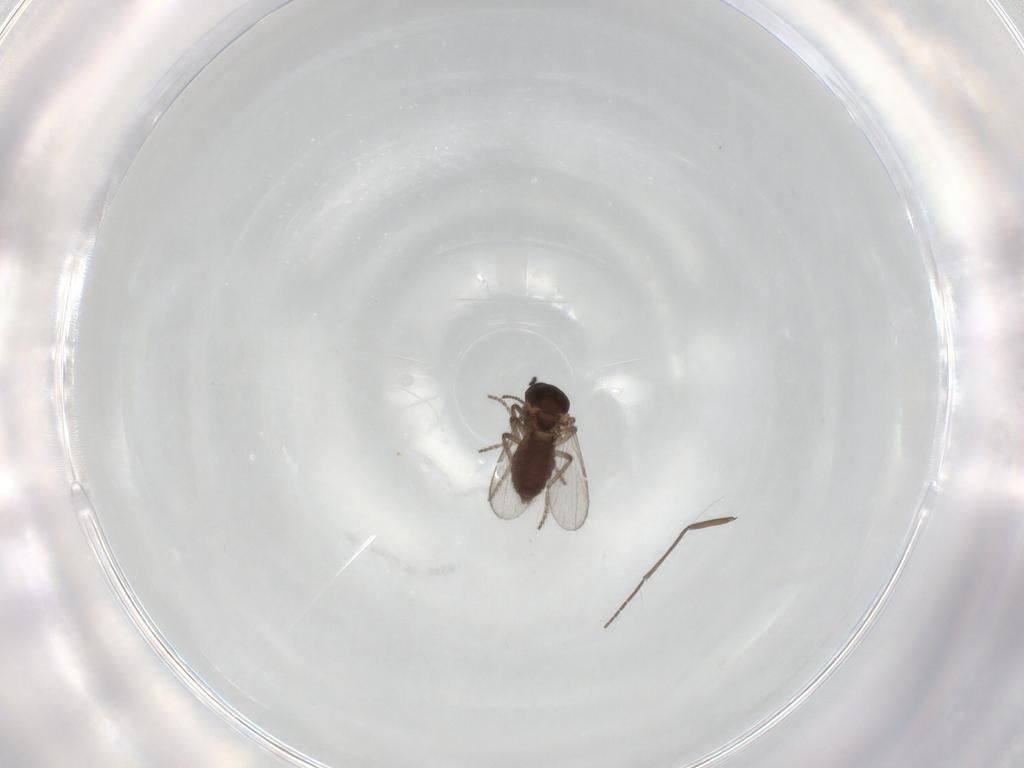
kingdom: Animalia
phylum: Arthropoda
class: Insecta
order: Diptera
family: Ceratopogonidae
